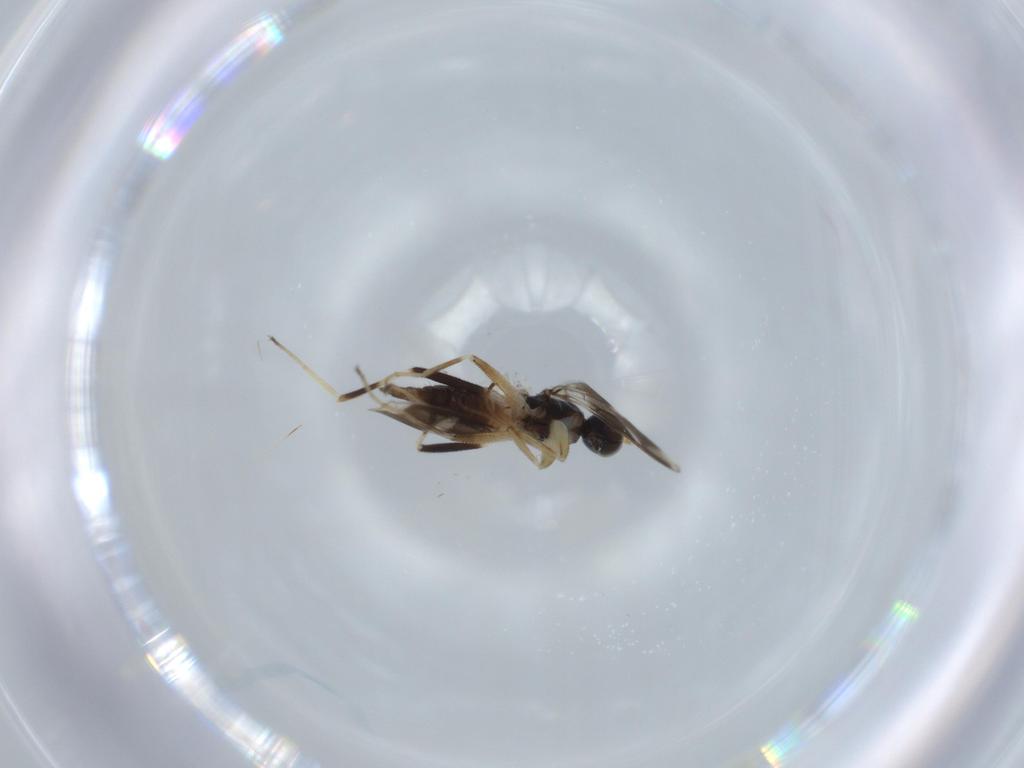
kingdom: Animalia
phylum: Arthropoda
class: Insecta
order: Diptera
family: Hybotidae
